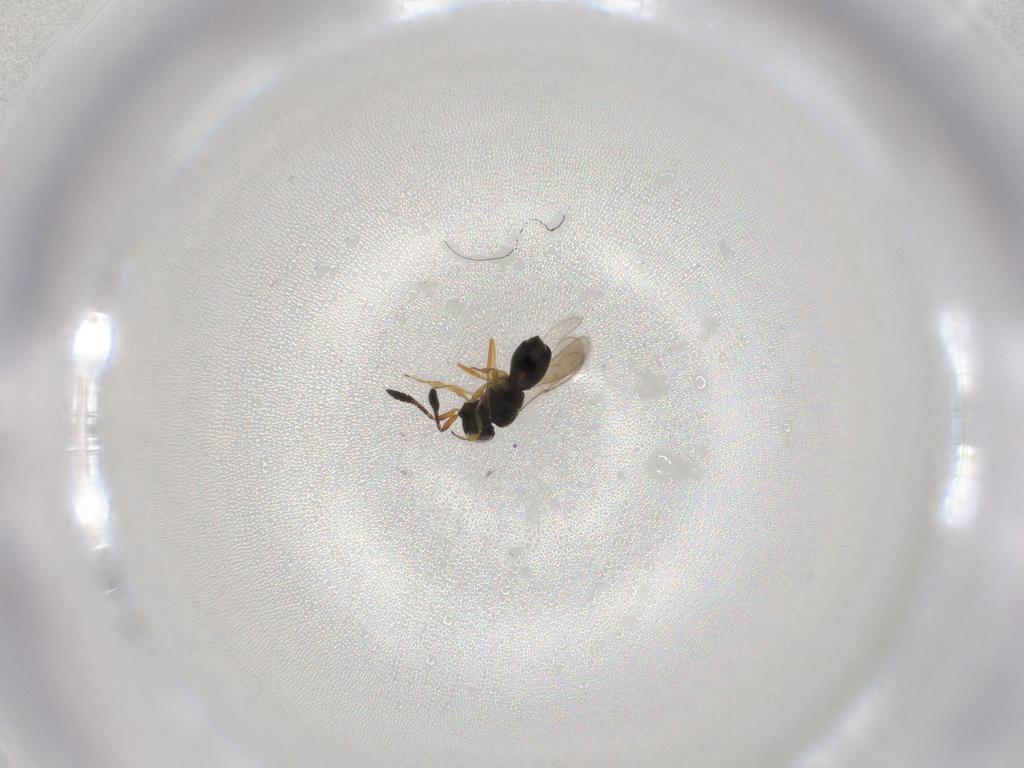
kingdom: Animalia
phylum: Arthropoda
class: Insecta
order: Hymenoptera
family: Scelionidae
